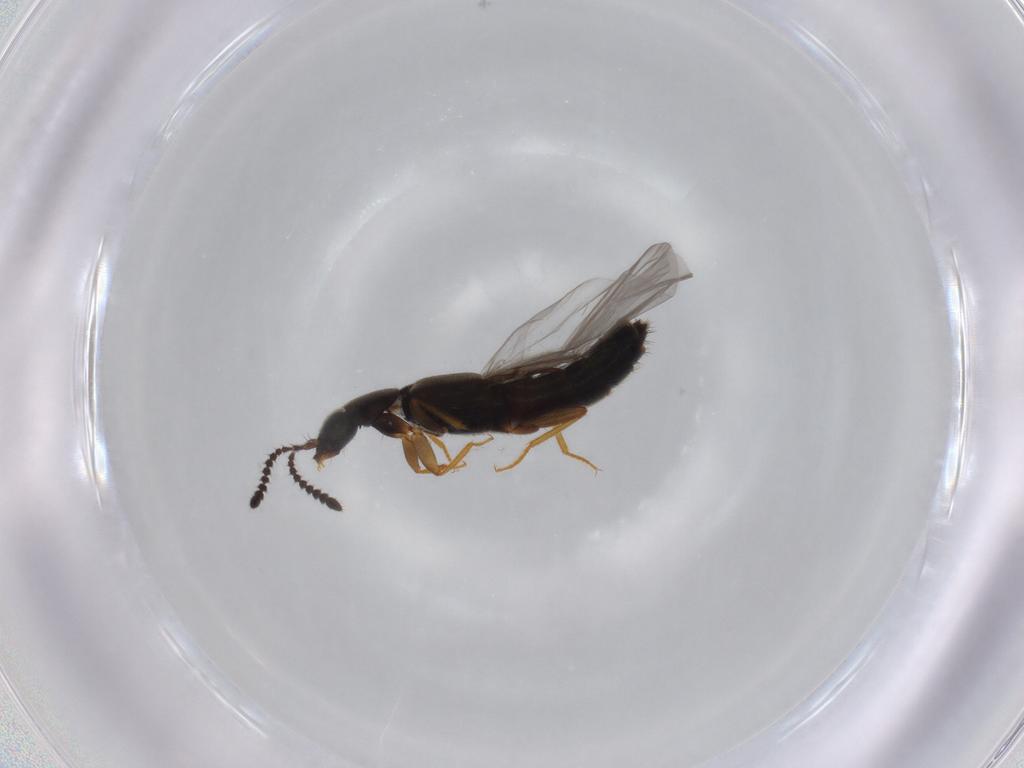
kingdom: Animalia
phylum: Arthropoda
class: Insecta
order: Coleoptera
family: Staphylinidae
